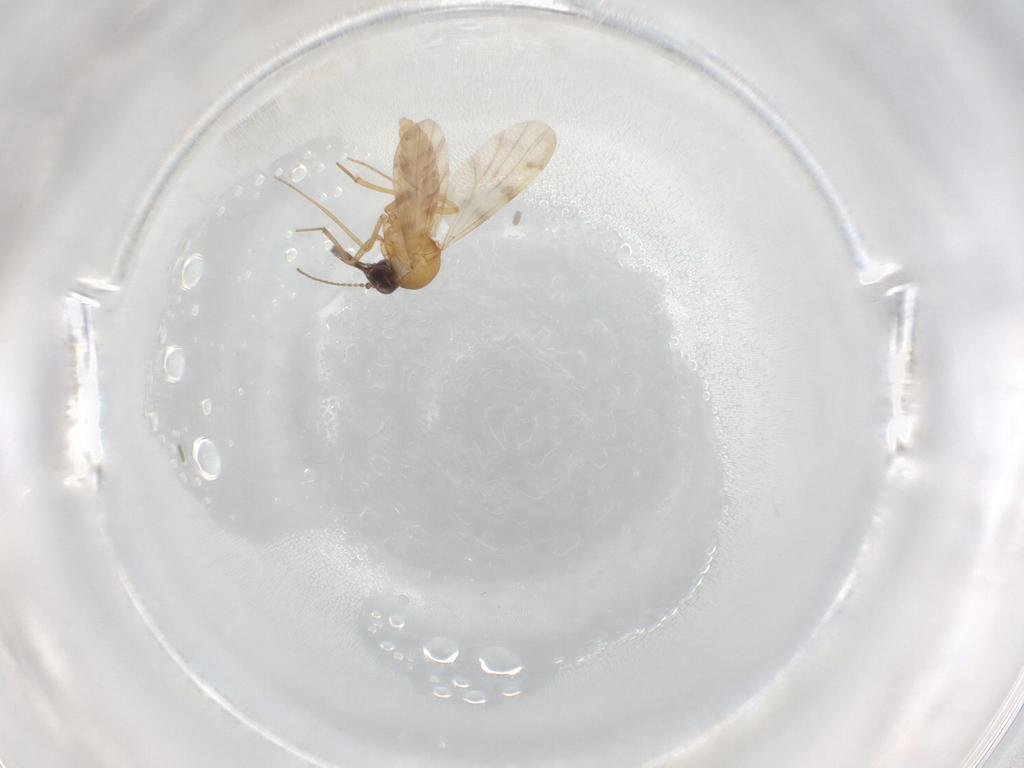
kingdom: Animalia
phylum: Arthropoda
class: Insecta
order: Diptera
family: Ceratopogonidae
